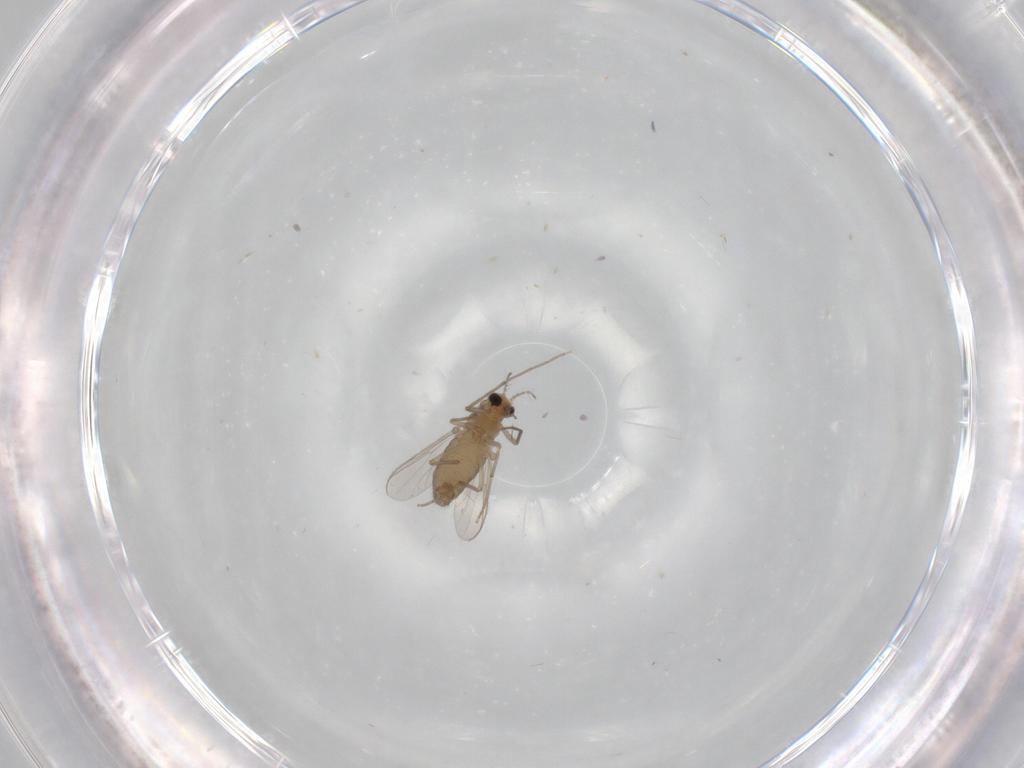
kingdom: Animalia
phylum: Arthropoda
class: Insecta
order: Diptera
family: Chironomidae
